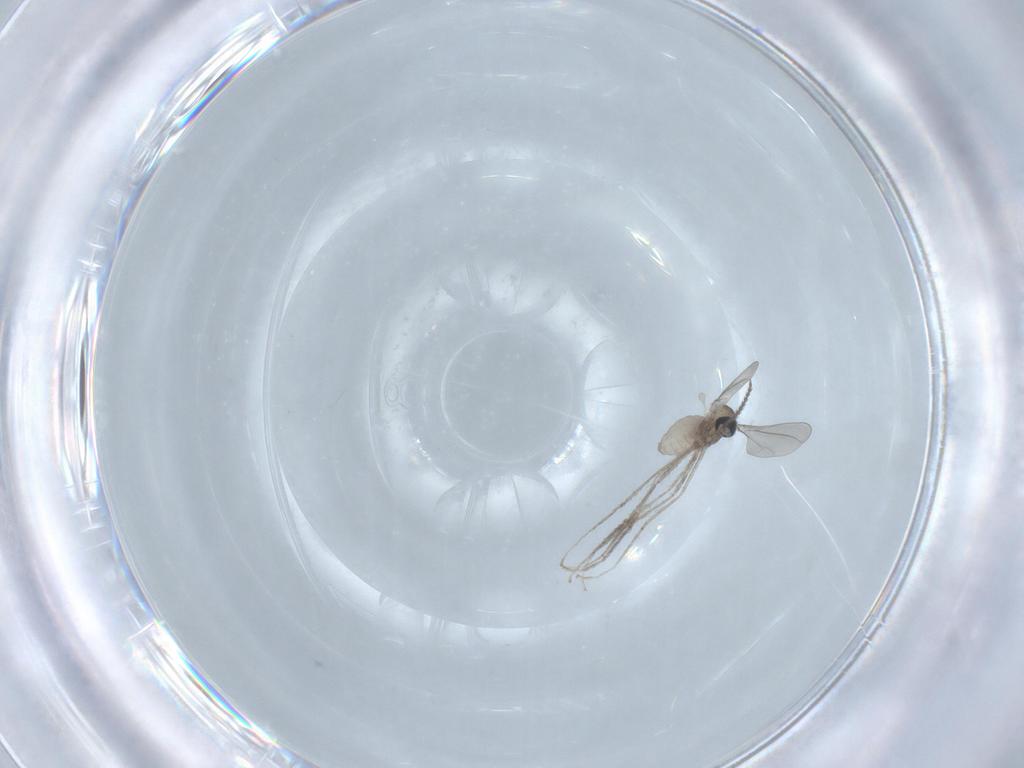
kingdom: Animalia
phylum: Arthropoda
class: Insecta
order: Diptera
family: Cecidomyiidae
